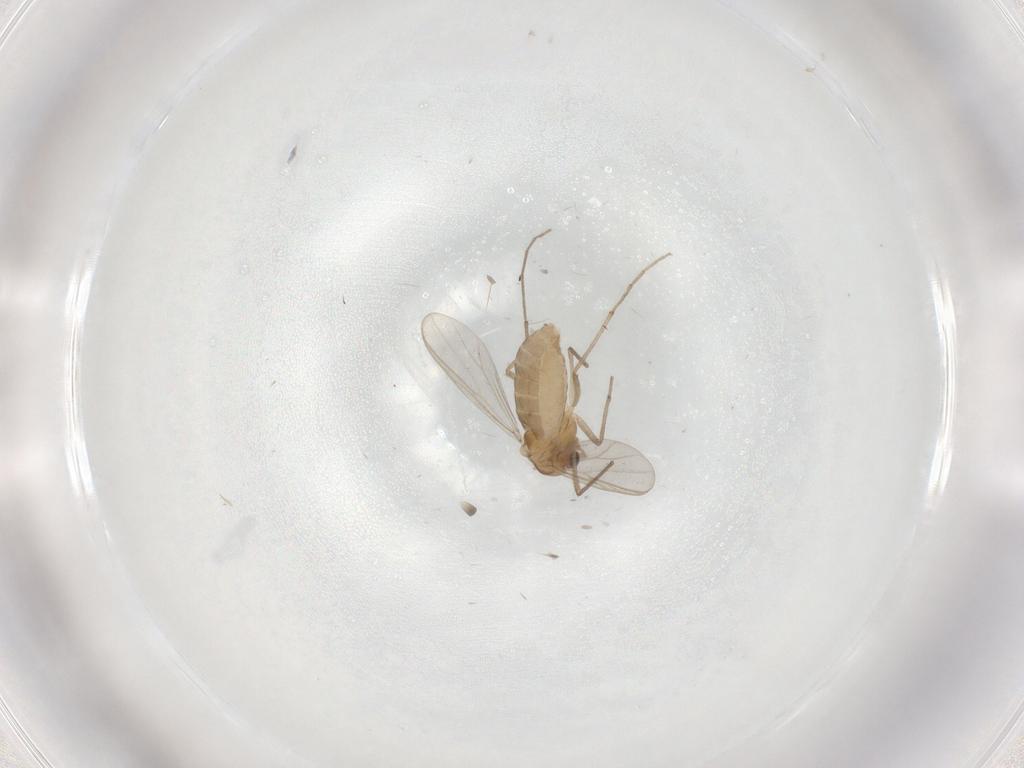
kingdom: Animalia
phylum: Arthropoda
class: Insecta
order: Diptera
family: Chironomidae
